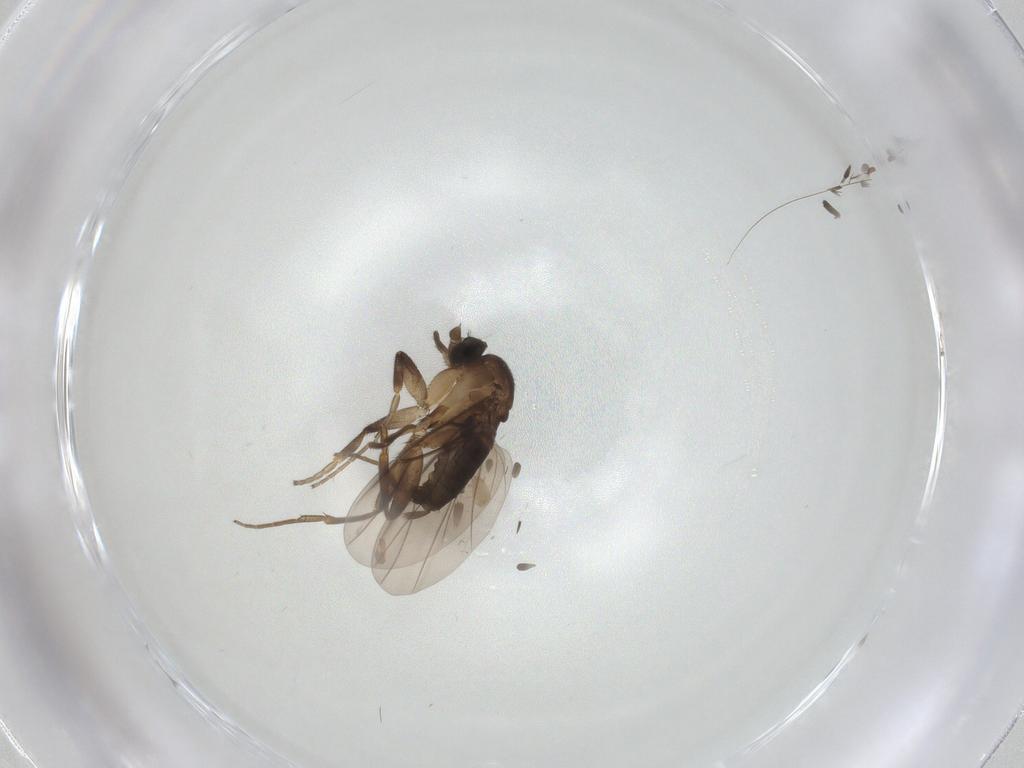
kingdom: Animalia
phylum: Arthropoda
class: Insecta
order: Diptera
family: Phoridae
